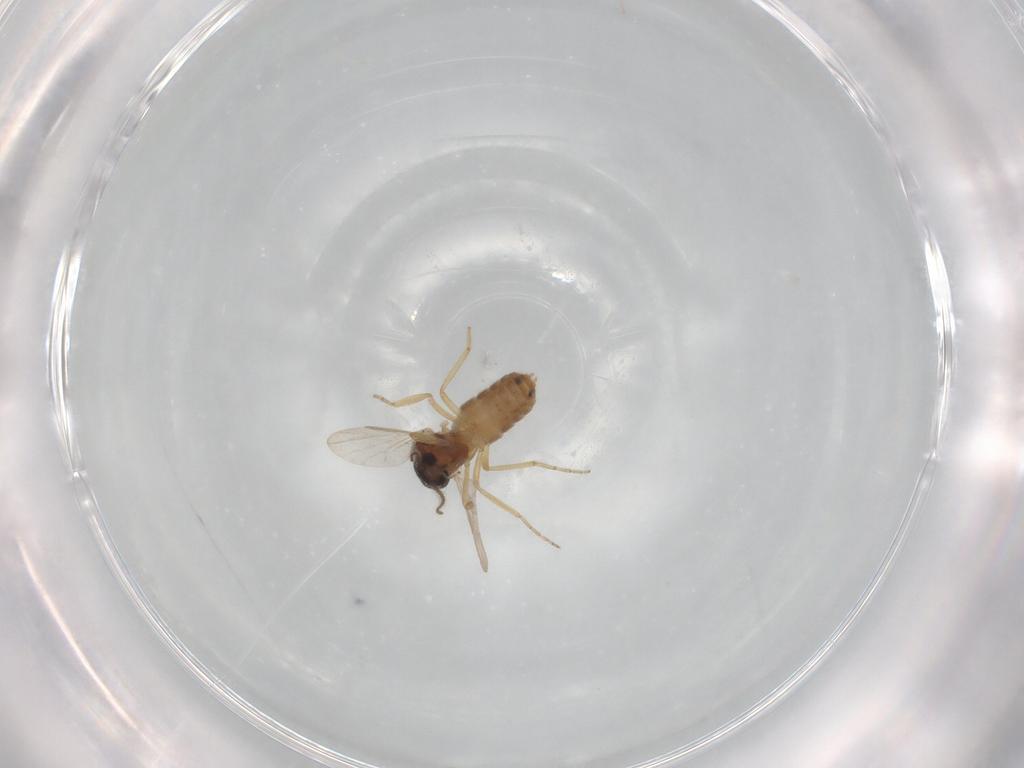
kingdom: Animalia
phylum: Arthropoda
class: Insecta
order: Diptera
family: Ceratopogonidae
